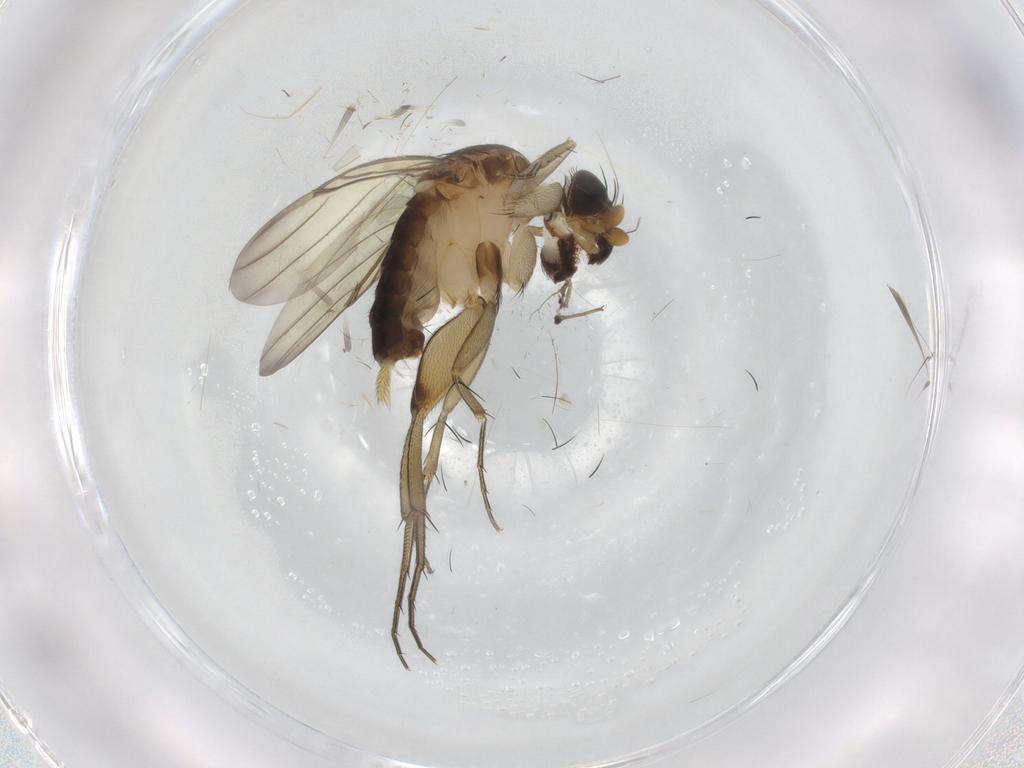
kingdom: Animalia
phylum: Arthropoda
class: Insecta
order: Diptera
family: Phoridae
